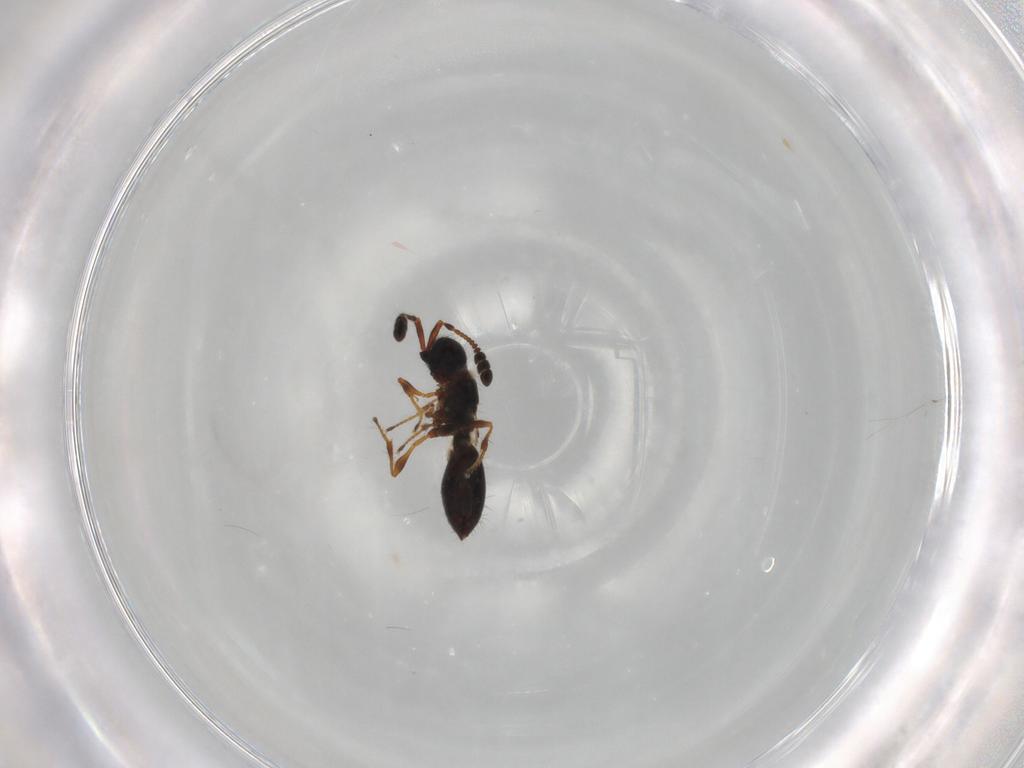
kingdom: Animalia
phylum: Arthropoda
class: Insecta
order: Hymenoptera
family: Diapriidae
